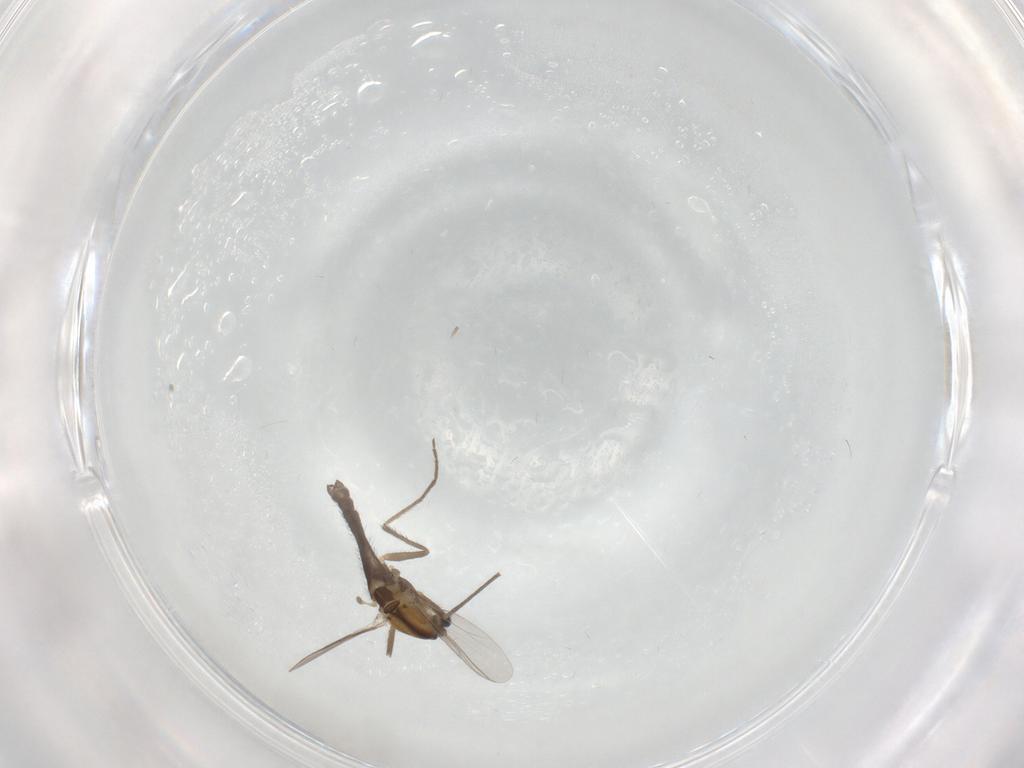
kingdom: Animalia
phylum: Arthropoda
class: Insecta
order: Diptera
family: Chironomidae
